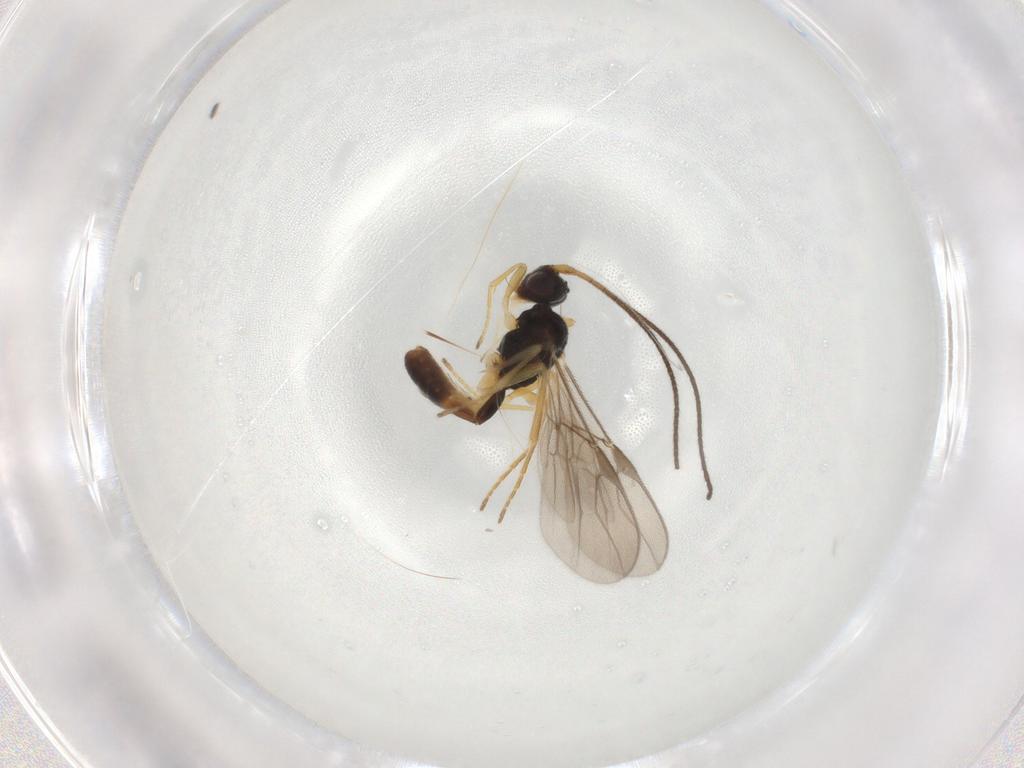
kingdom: Animalia
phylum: Arthropoda
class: Insecta
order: Hymenoptera
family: Braconidae
